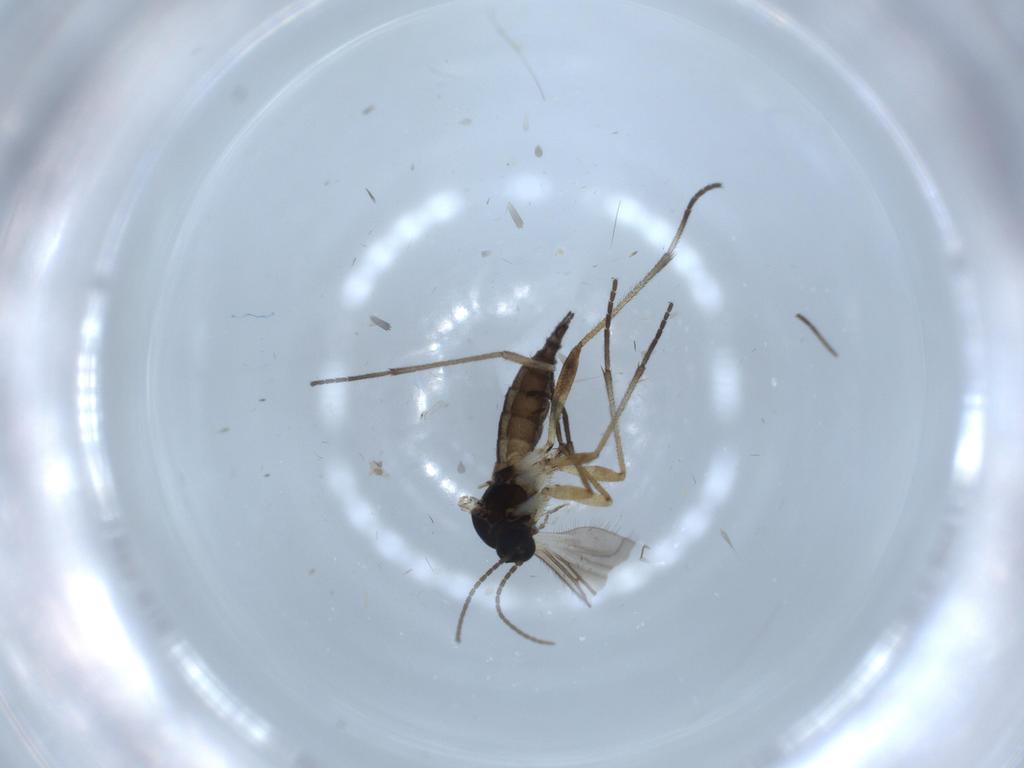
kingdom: Animalia
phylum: Arthropoda
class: Insecta
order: Diptera
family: Sciaridae
